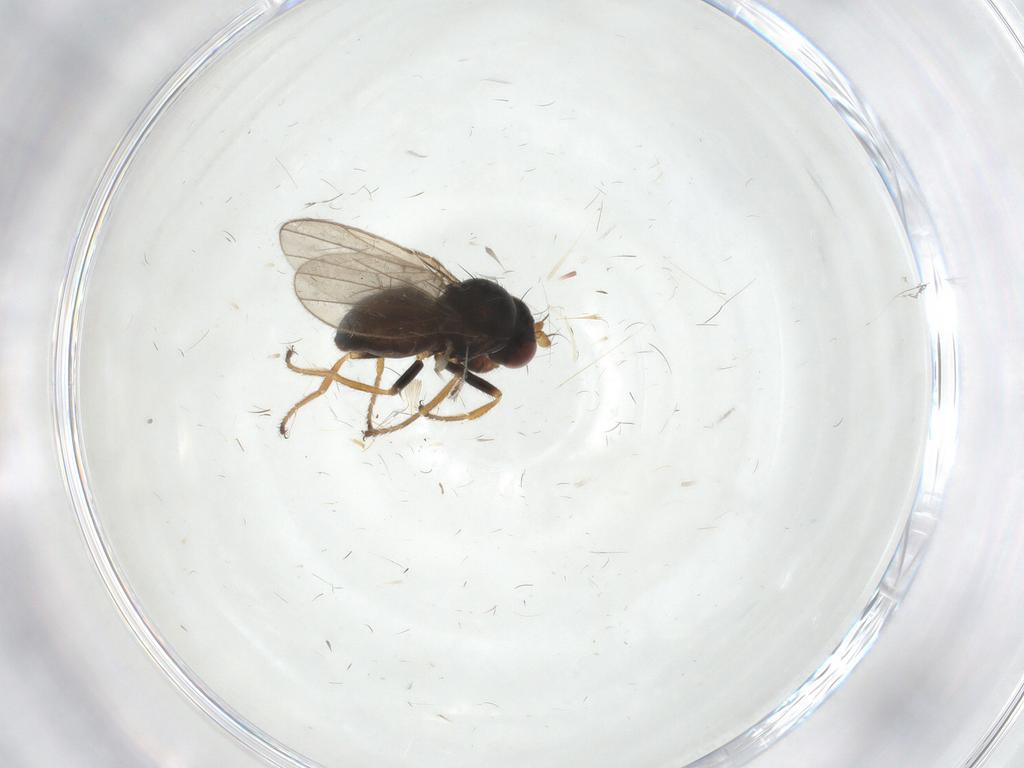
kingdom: Animalia
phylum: Arthropoda
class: Insecta
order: Diptera
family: Ephydridae
